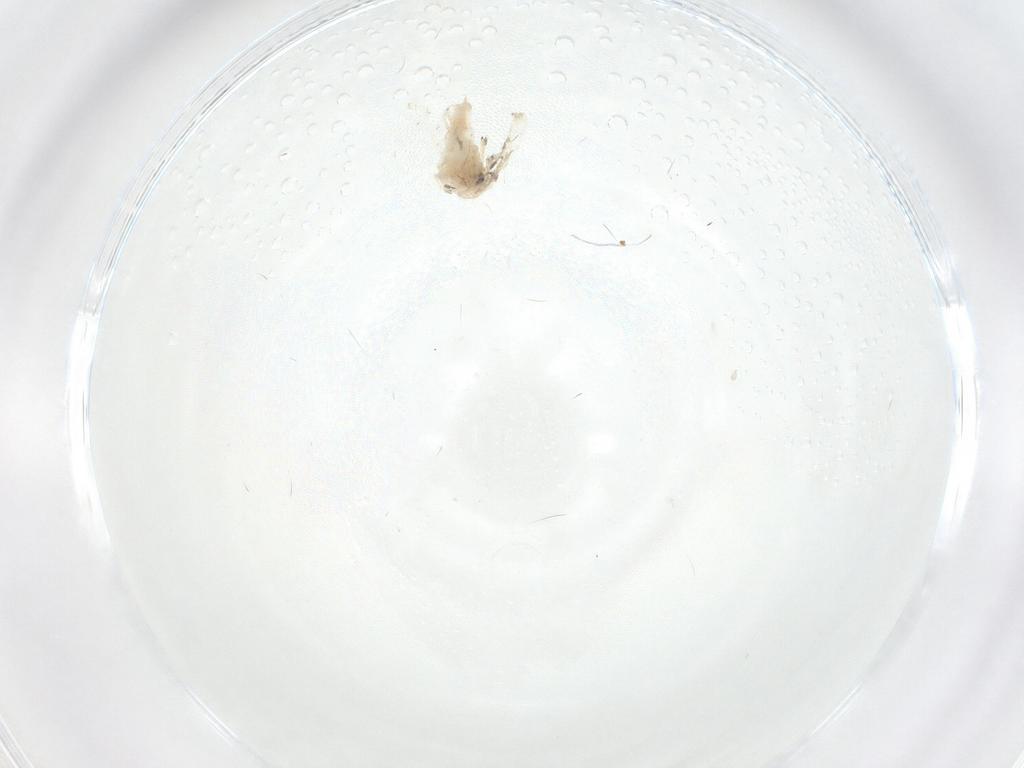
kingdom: Animalia
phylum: Arthropoda
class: Insecta
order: Hemiptera
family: Aleyrodidae
